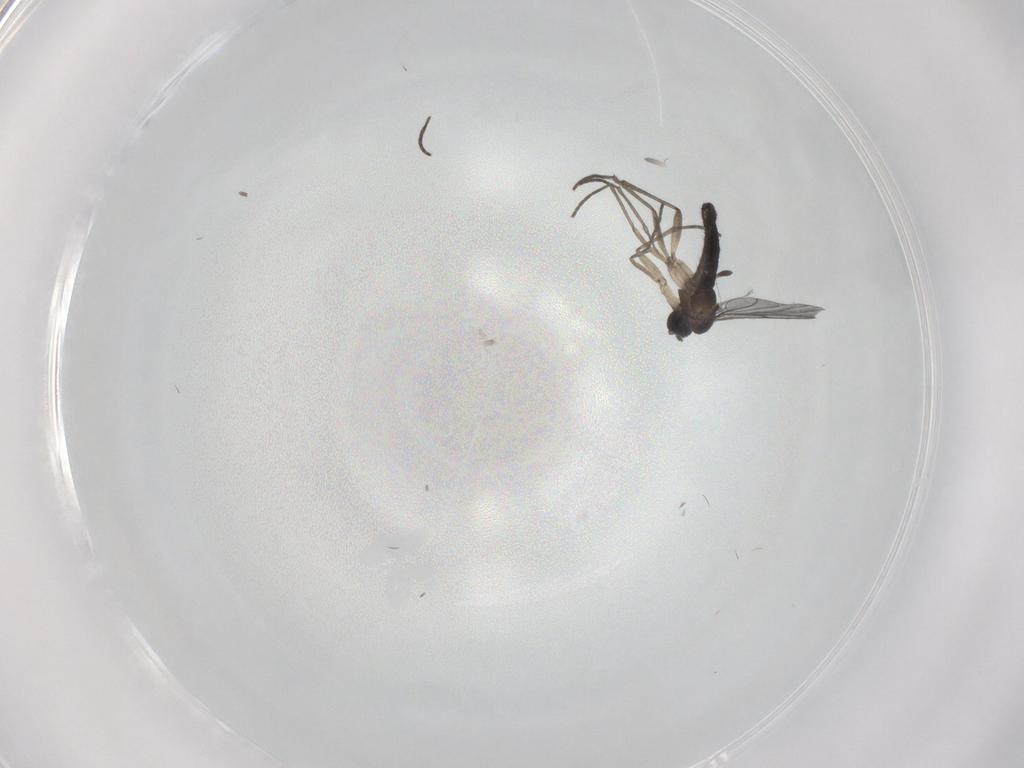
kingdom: Animalia
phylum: Arthropoda
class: Insecta
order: Diptera
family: Sciaridae
